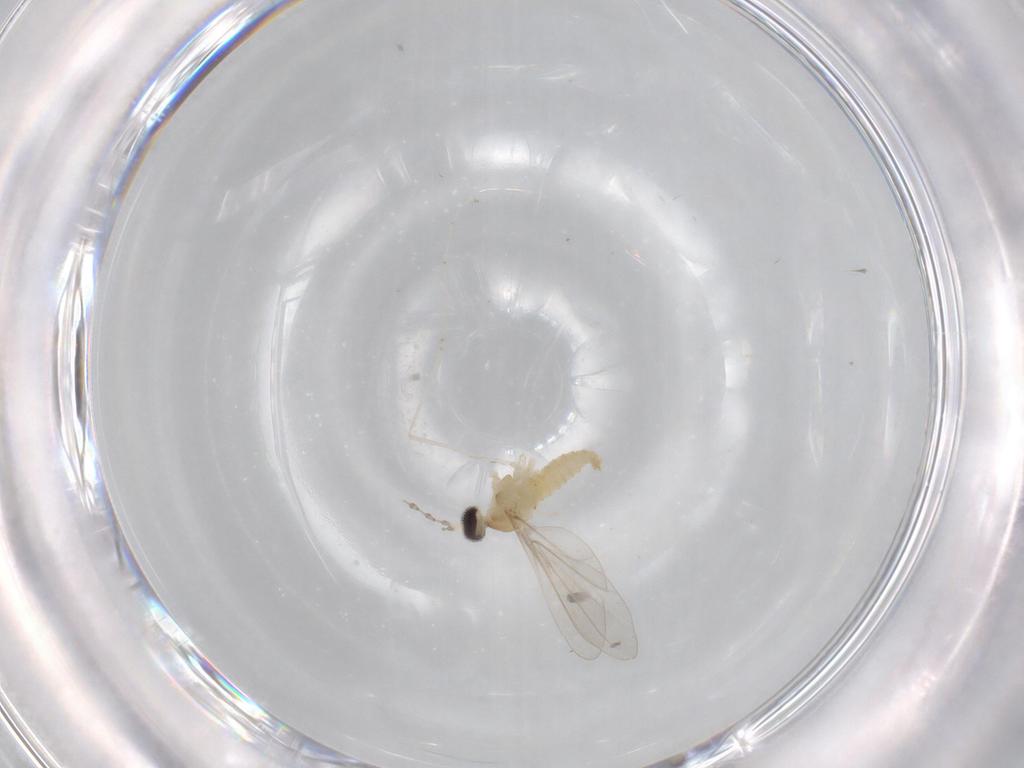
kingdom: Animalia
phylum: Arthropoda
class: Insecta
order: Diptera
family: Cecidomyiidae
